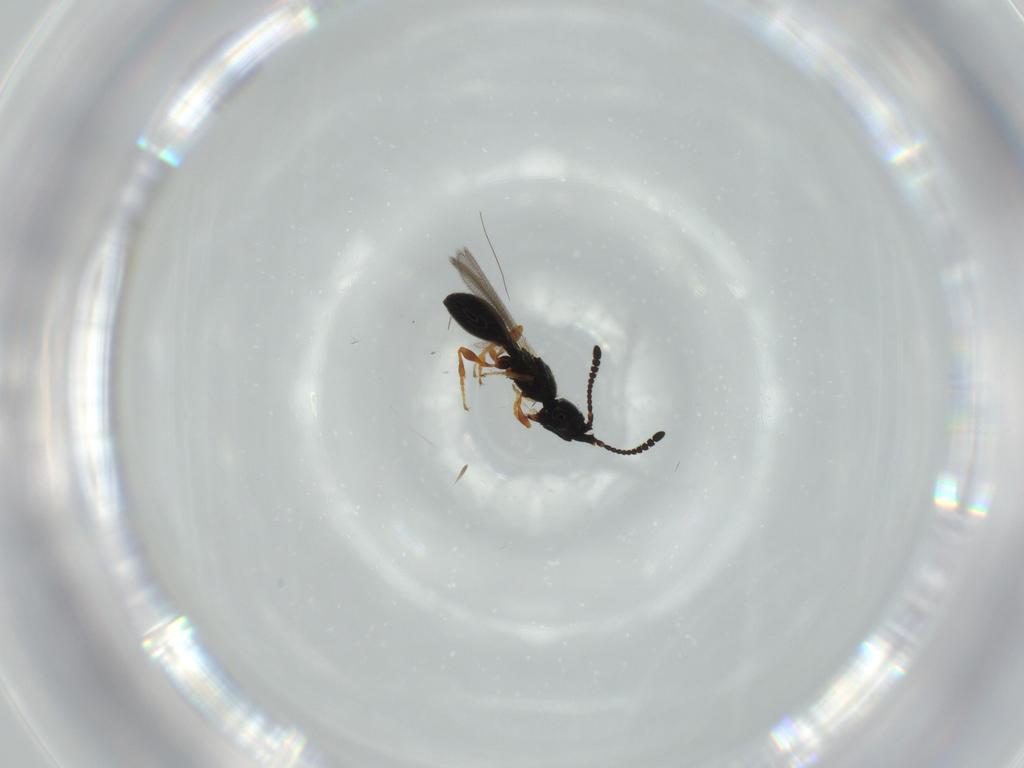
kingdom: Animalia
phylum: Arthropoda
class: Insecta
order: Hymenoptera
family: Diapriidae
